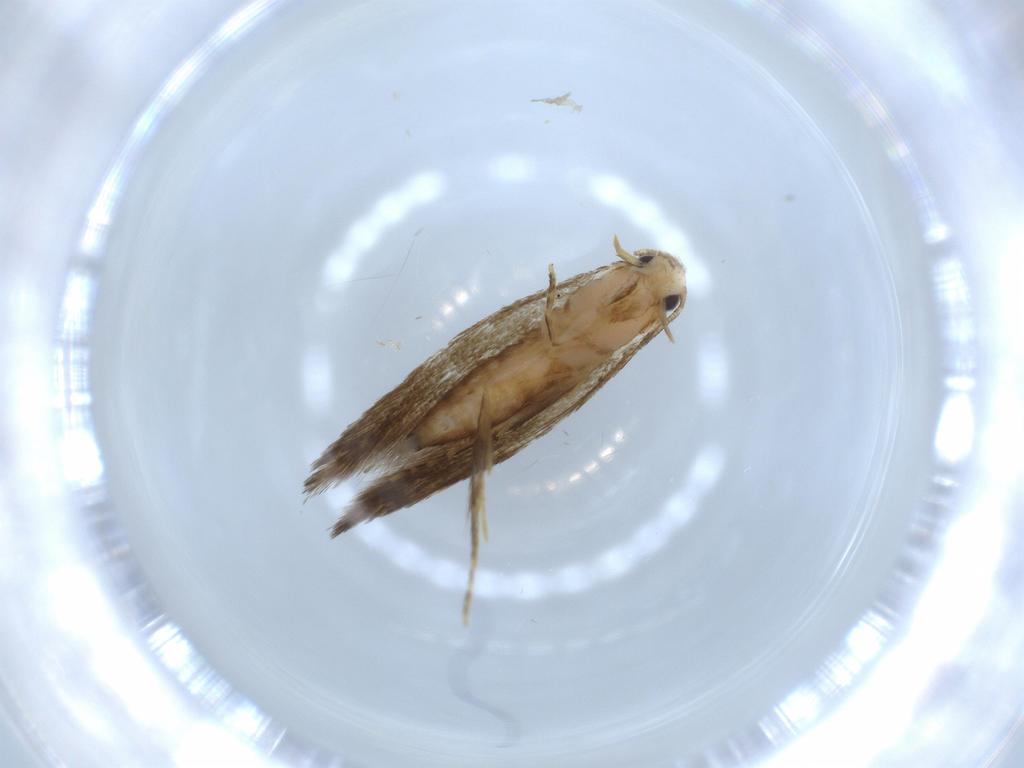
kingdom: Animalia
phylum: Arthropoda
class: Insecta
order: Lepidoptera
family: Tineidae
